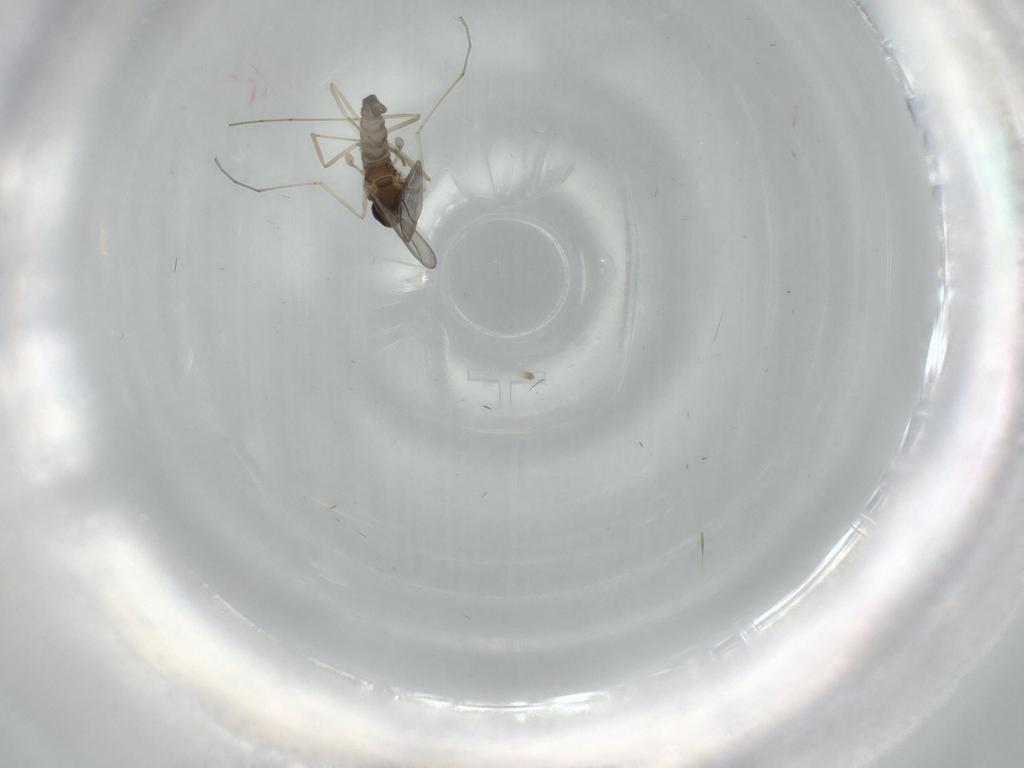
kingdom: Animalia
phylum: Arthropoda
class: Insecta
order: Diptera
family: Cecidomyiidae
